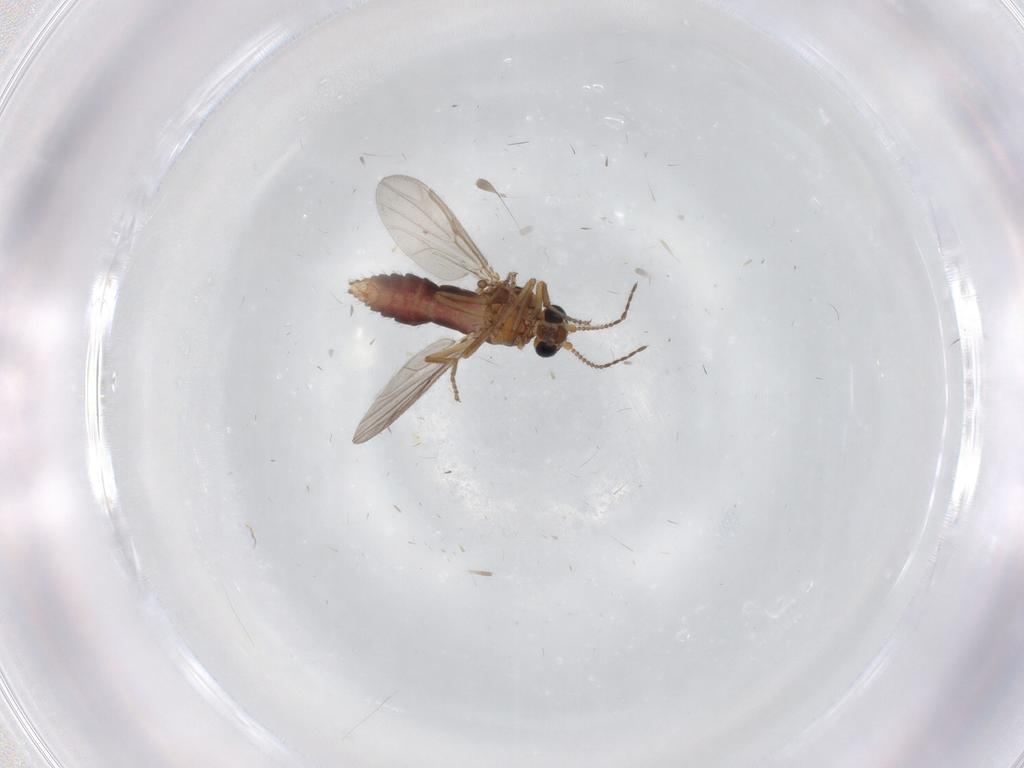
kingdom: Animalia
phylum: Arthropoda
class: Insecta
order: Diptera
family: Ceratopogonidae
